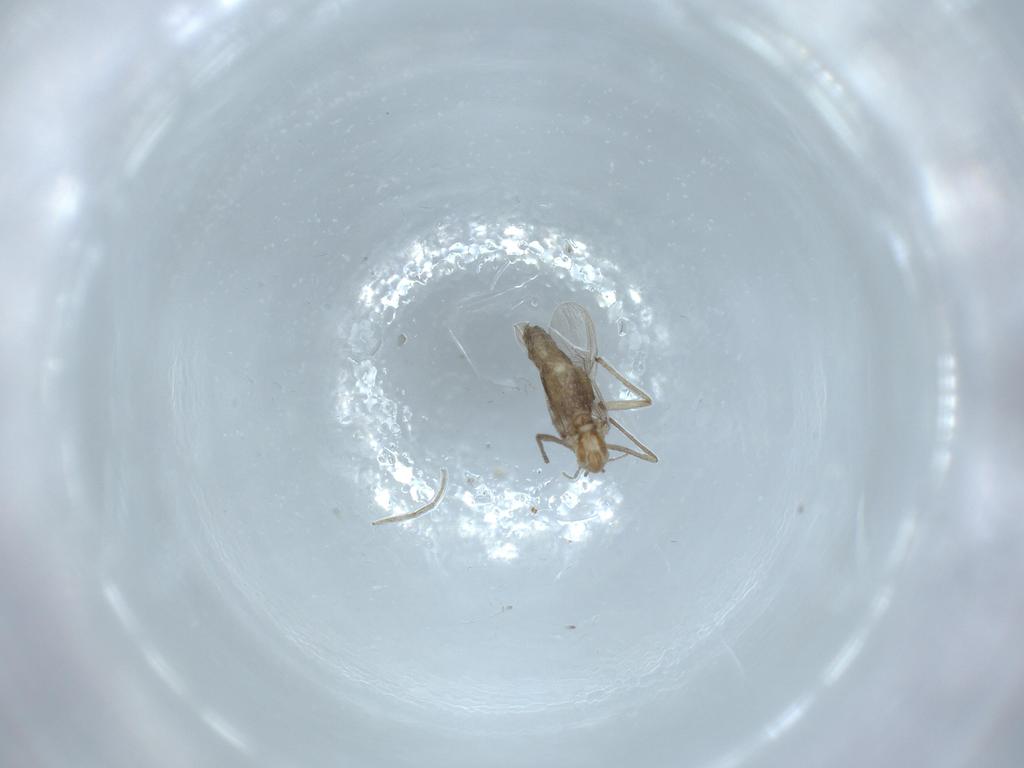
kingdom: Animalia
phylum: Arthropoda
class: Insecta
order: Diptera
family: Chironomidae
